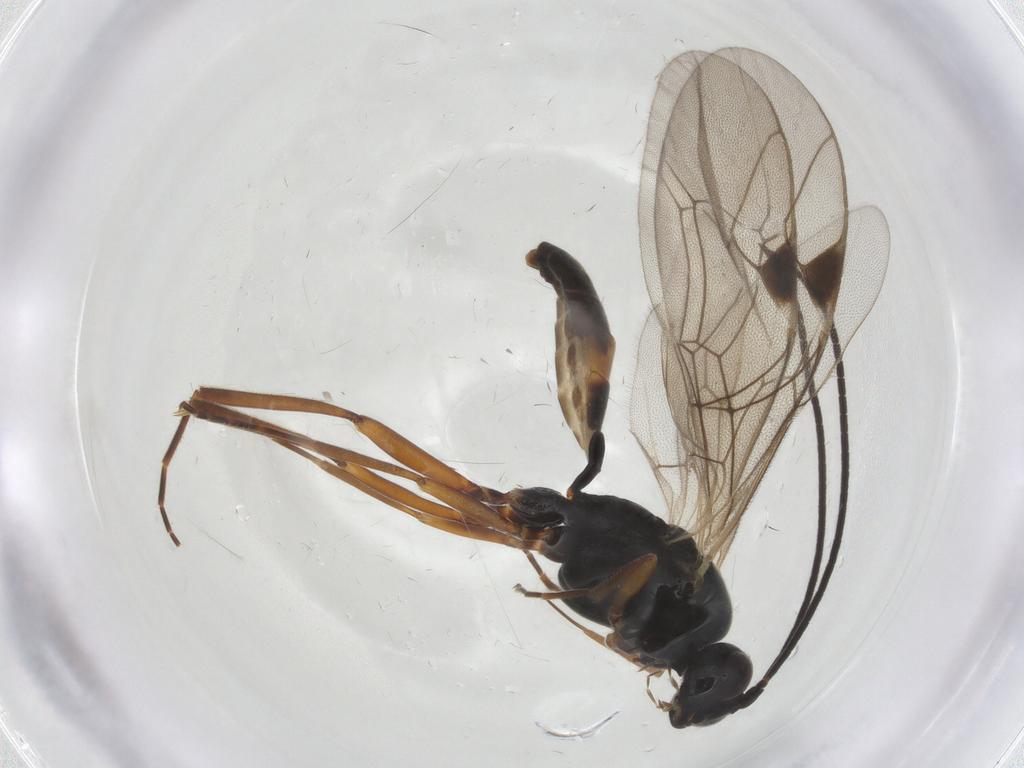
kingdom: Animalia
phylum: Arthropoda
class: Insecta
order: Hymenoptera
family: Ichneumonidae
